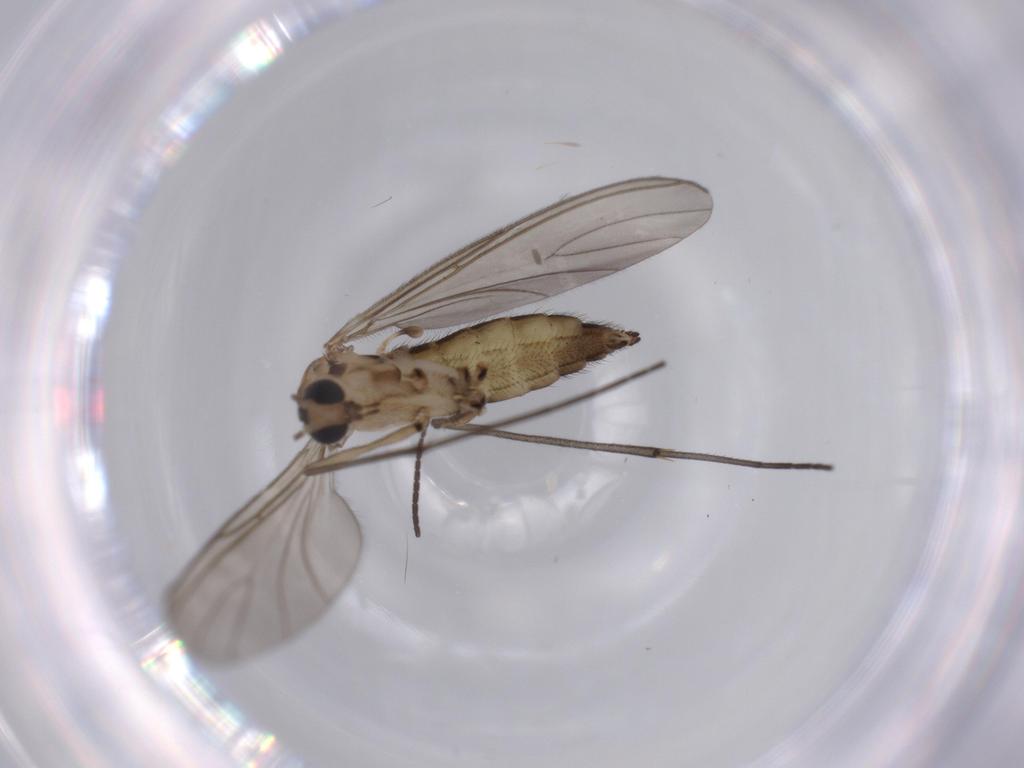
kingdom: Animalia
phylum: Arthropoda
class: Insecta
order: Diptera
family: Sciaridae
